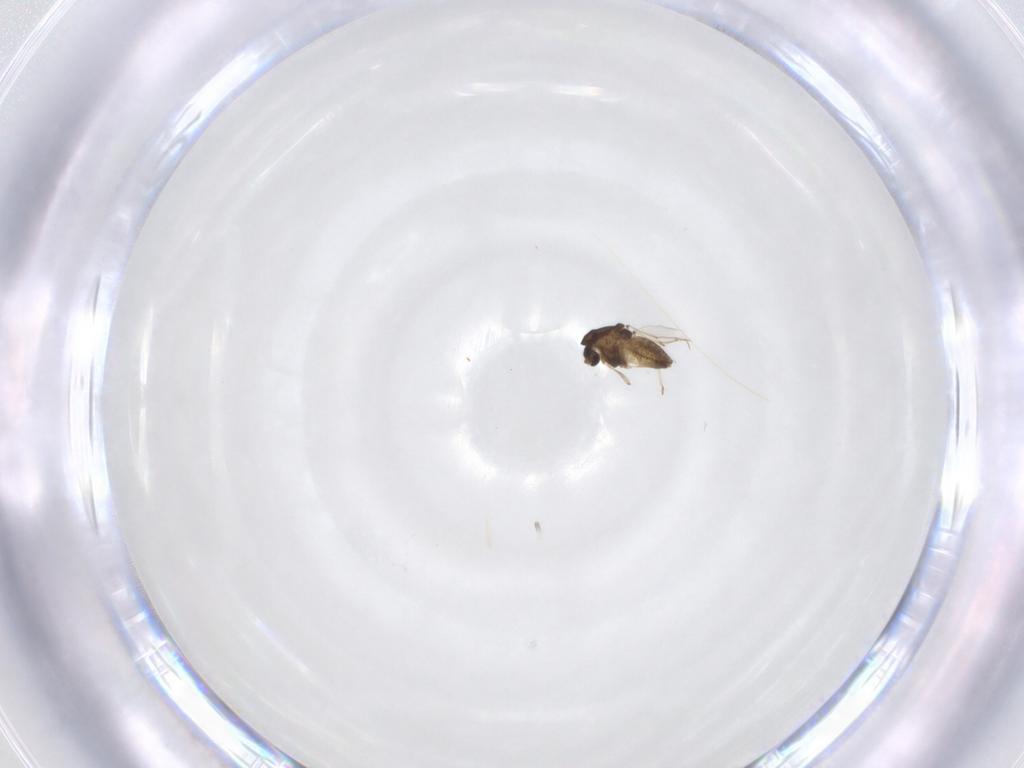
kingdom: Animalia
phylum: Arthropoda
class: Insecta
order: Diptera
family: Chironomidae
